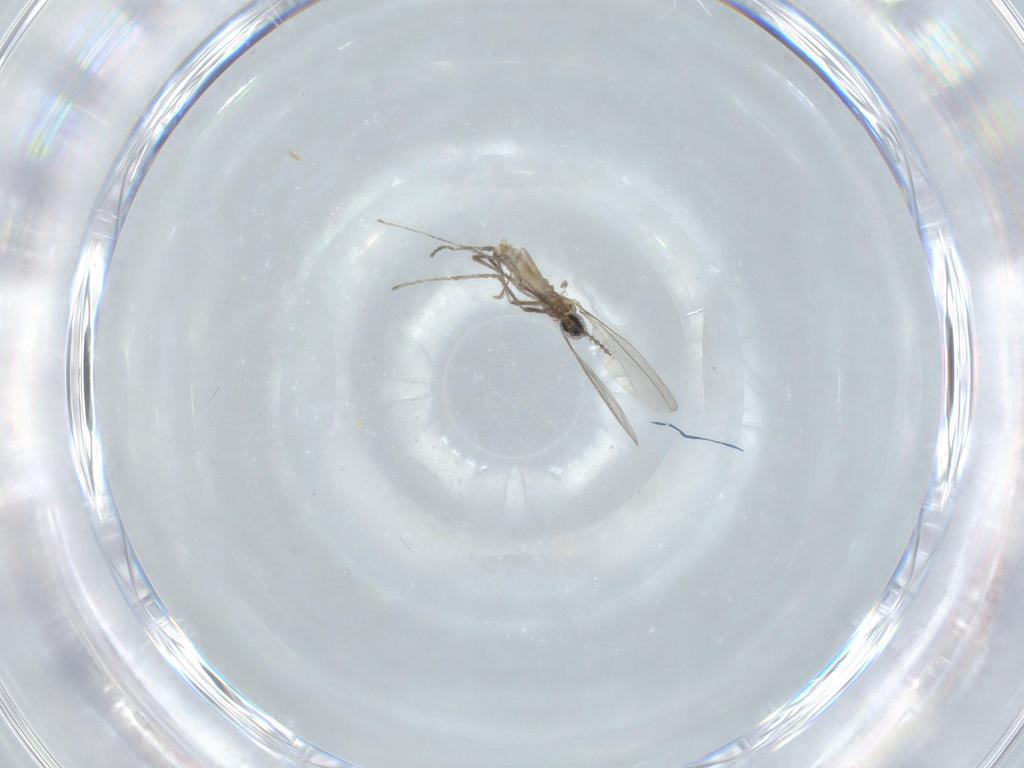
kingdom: Animalia
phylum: Arthropoda
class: Insecta
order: Diptera
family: Cecidomyiidae
